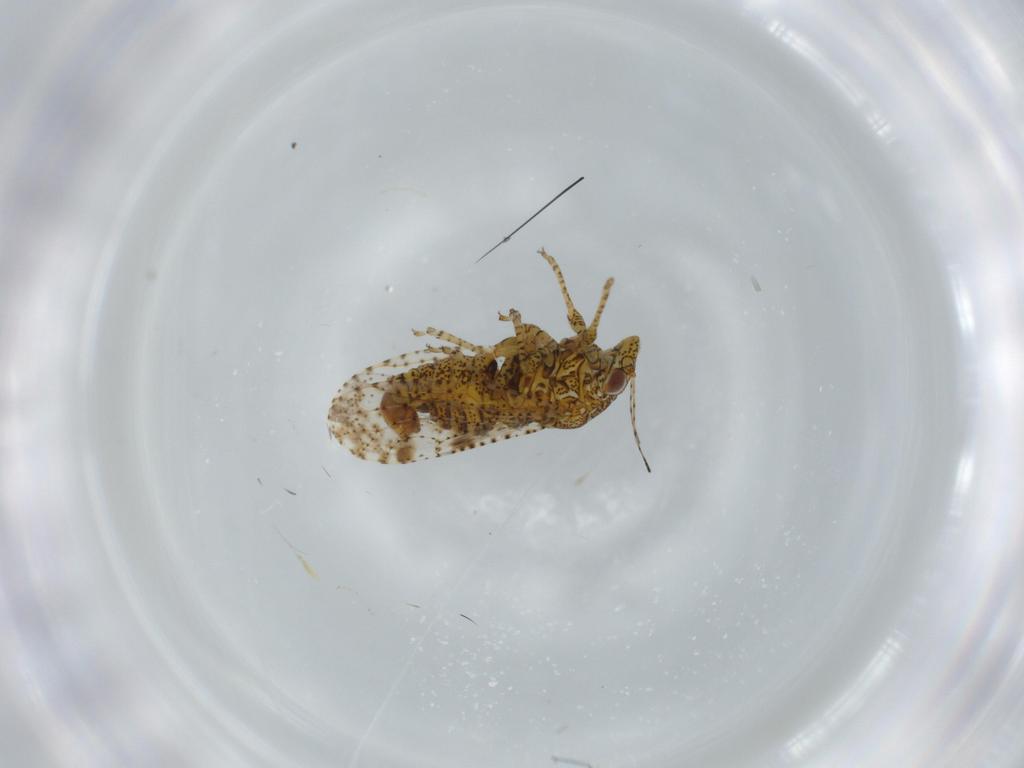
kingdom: Animalia
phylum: Arthropoda
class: Insecta
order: Hemiptera
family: Psyllidae
